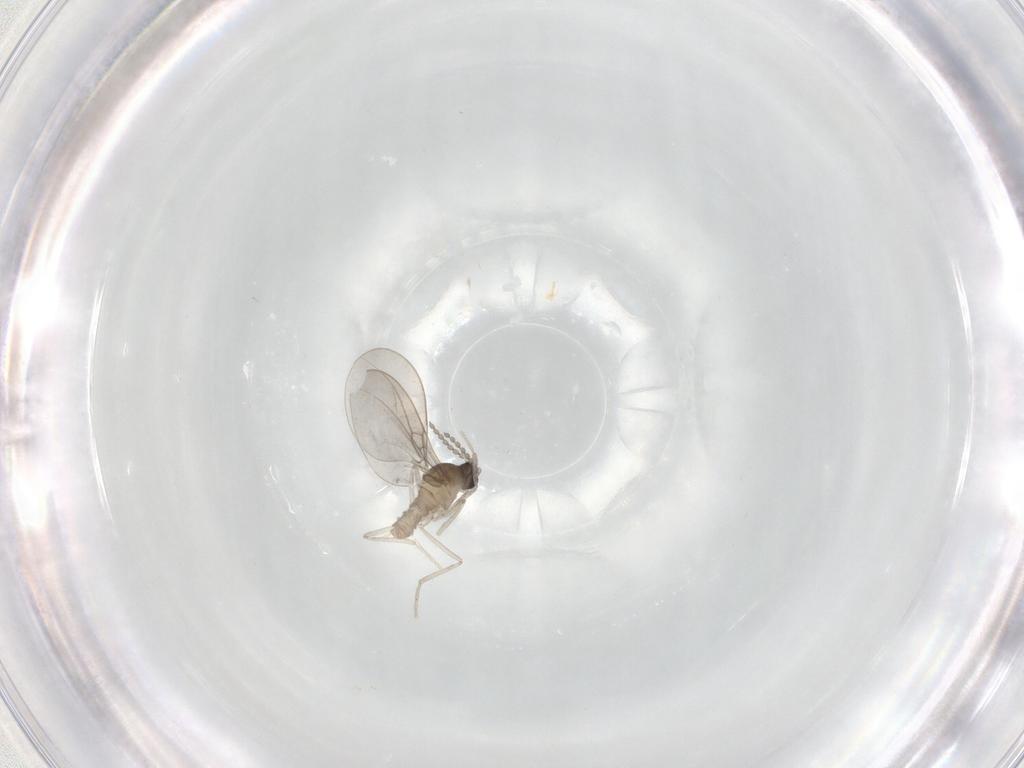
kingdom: Animalia
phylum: Arthropoda
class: Insecta
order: Diptera
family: Cecidomyiidae
